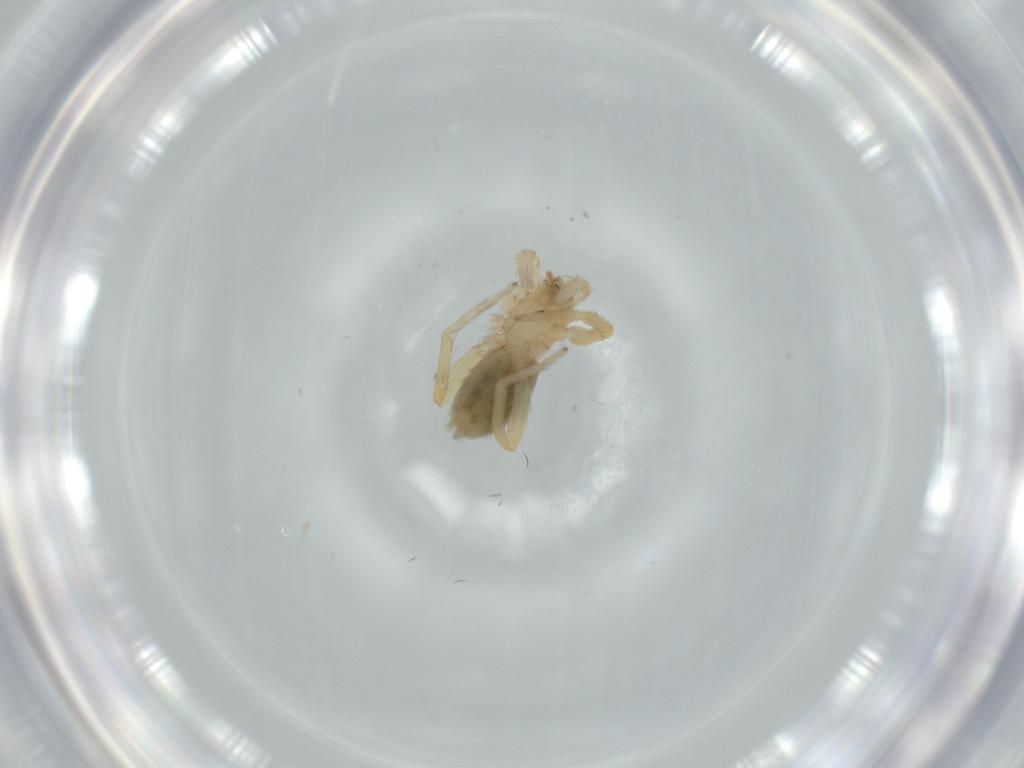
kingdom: Animalia
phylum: Arthropoda
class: Arachnida
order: Araneae
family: Oonopidae
